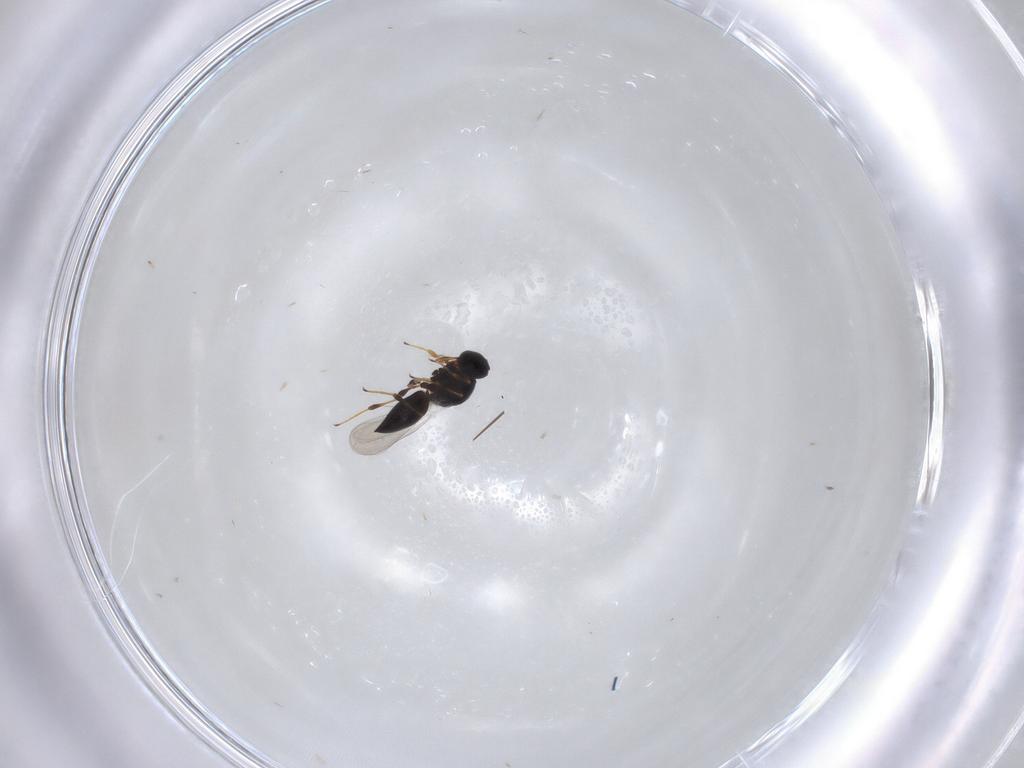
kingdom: Animalia
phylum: Arthropoda
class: Insecta
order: Hymenoptera
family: Platygastridae
